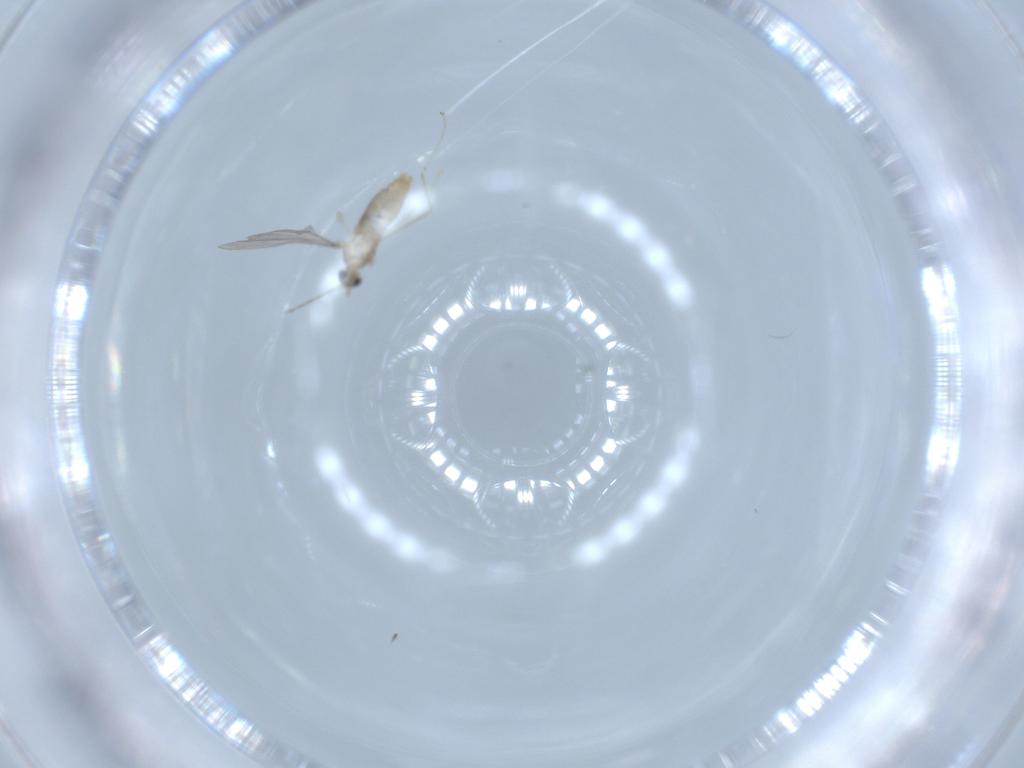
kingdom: Animalia
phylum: Arthropoda
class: Insecta
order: Diptera
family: Cecidomyiidae
